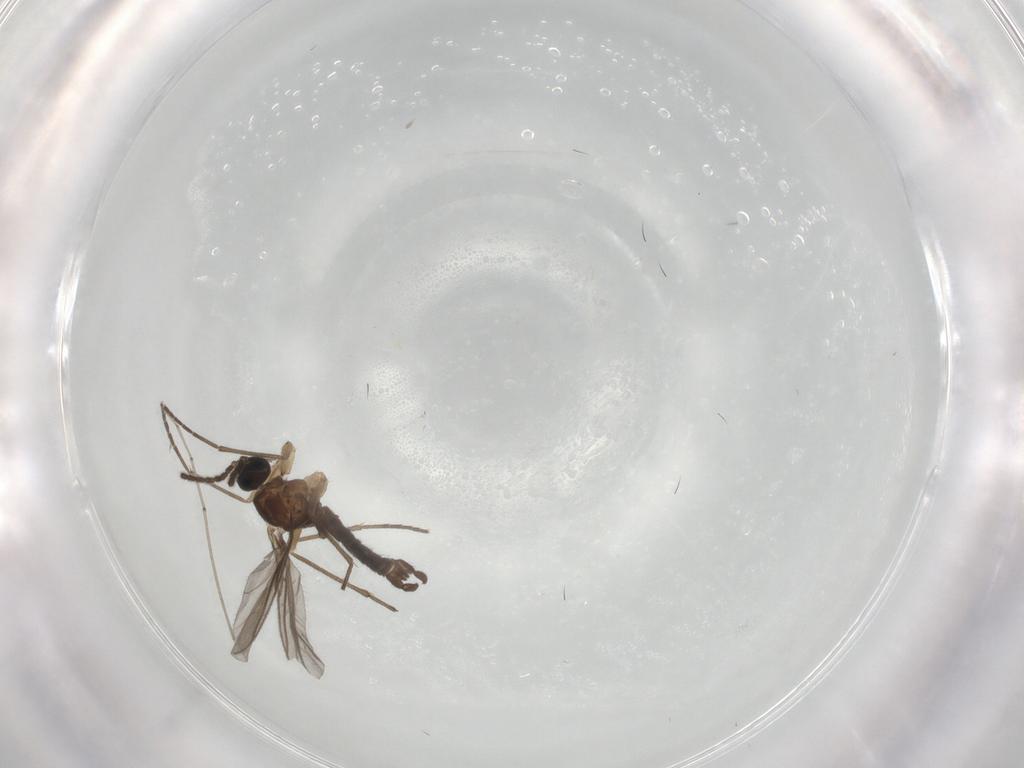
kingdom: Animalia
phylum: Arthropoda
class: Insecta
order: Diptera
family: Sciaridae
